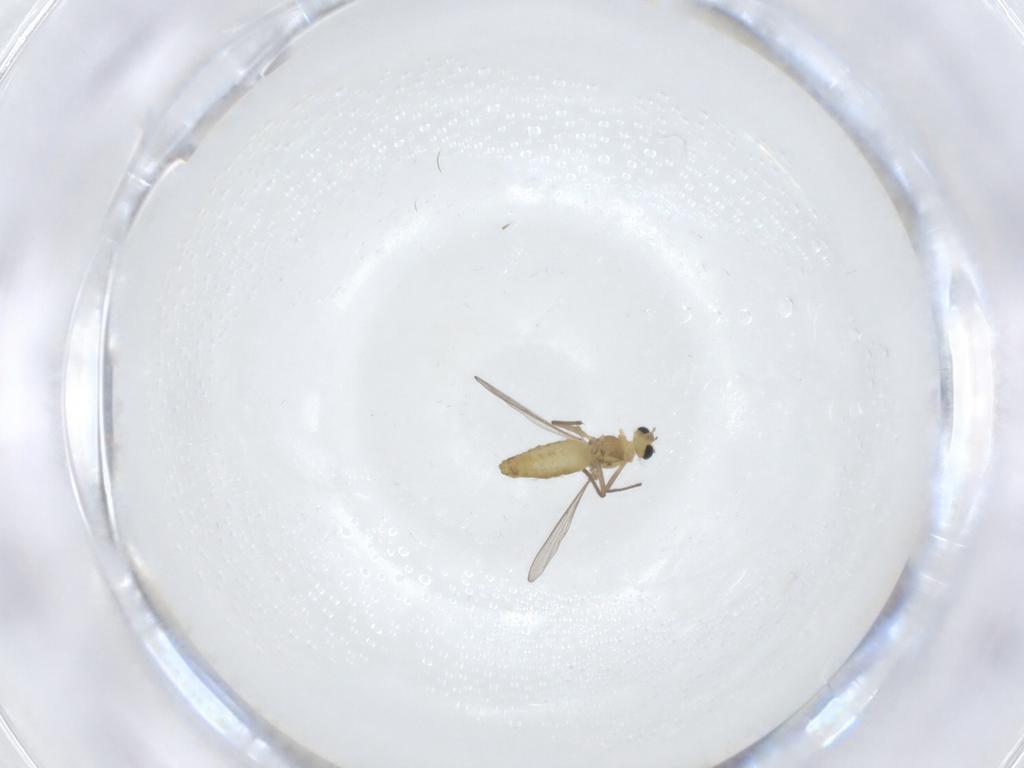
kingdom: Animalia
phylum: Arthropoda
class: Insecta
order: Diptera
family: Chironomidae
